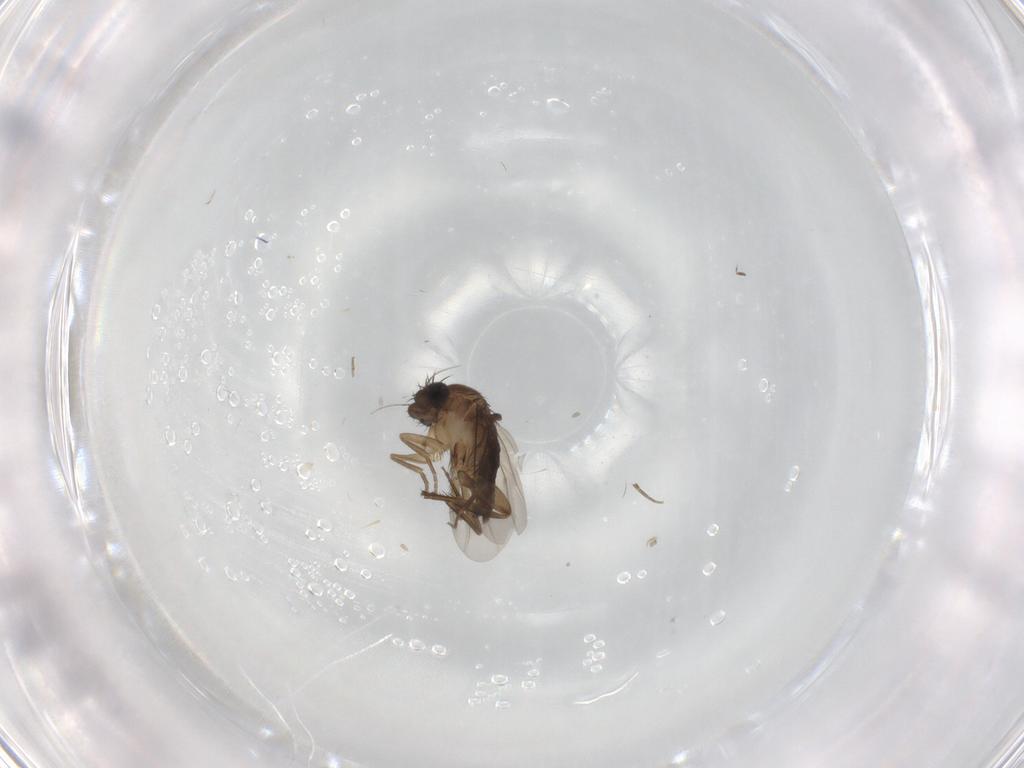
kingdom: Animalia
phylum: Arthropoda
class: Insecta
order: Diptera
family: Phoridae
